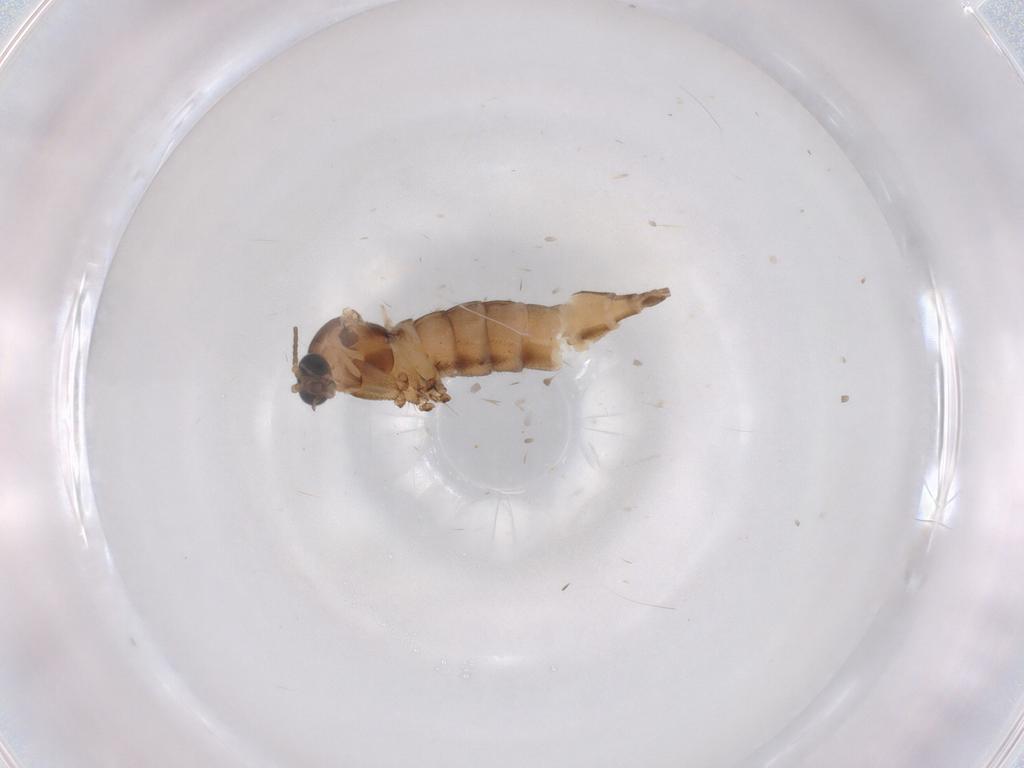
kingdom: Animalia
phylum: Arthropoda
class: Insecta
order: Diptera
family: Sciaridae
